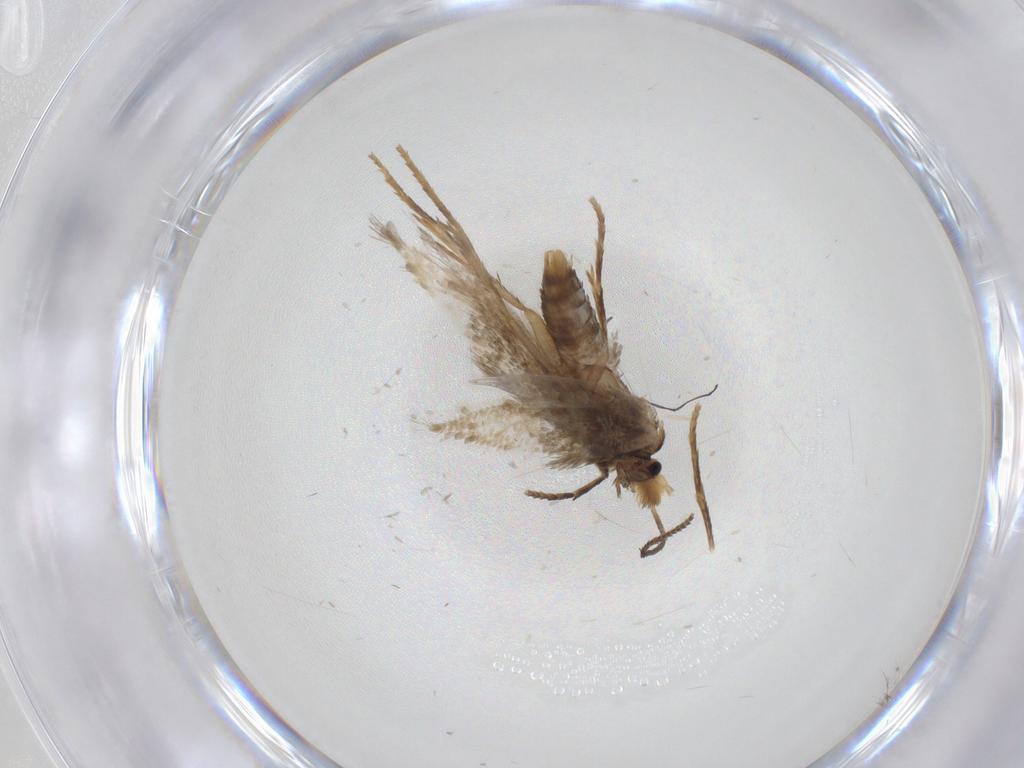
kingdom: Animalia
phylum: Arthropoda
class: Insecta
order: Lepidoptera
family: Nepticulidae
